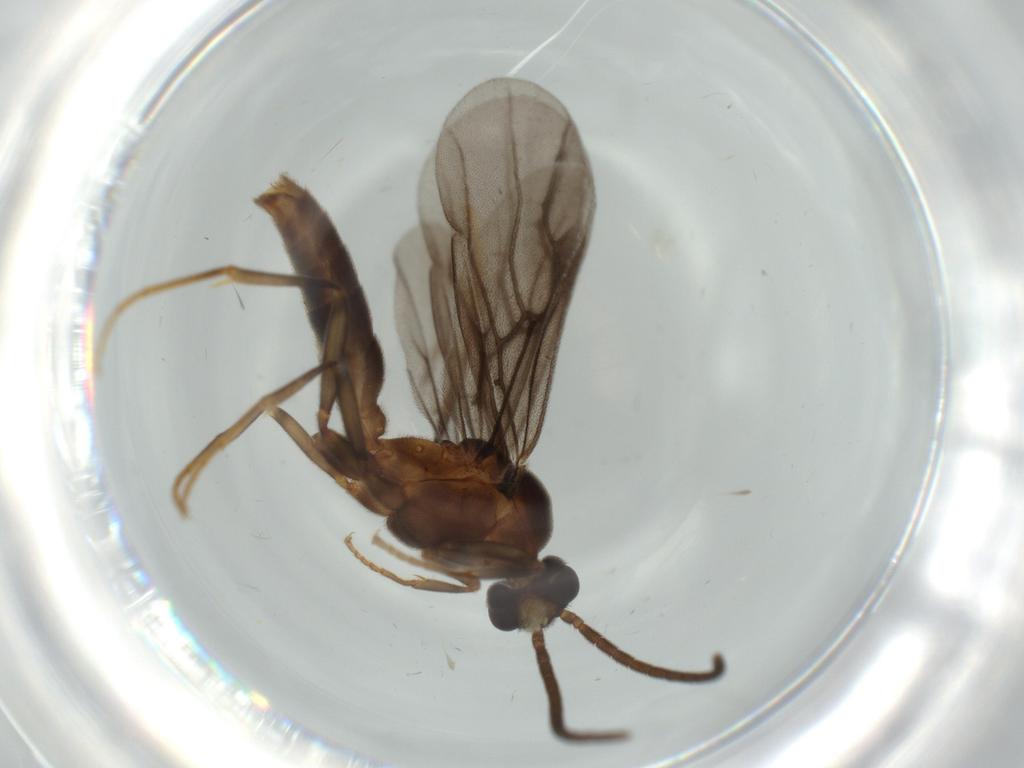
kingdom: Animalia
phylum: Arthropoda
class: Insecta
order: Hymenoptera
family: Formicidae
